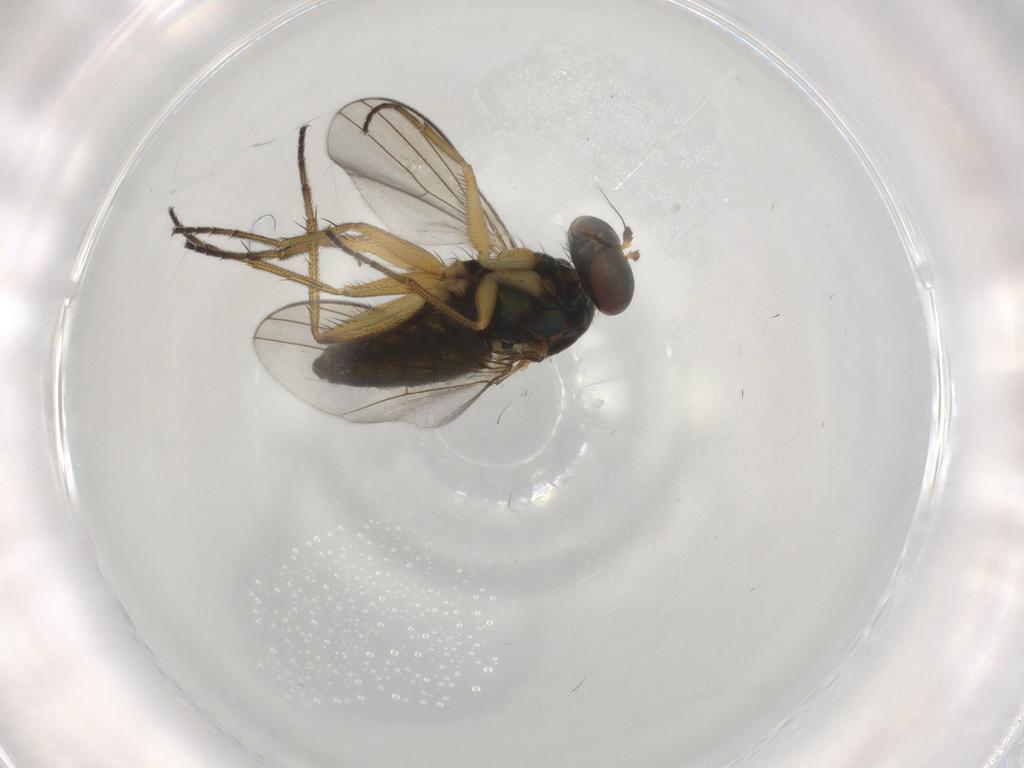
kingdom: Animalia
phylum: Arthropoda
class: Insecta
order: Diptera
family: Dolichopodidae
